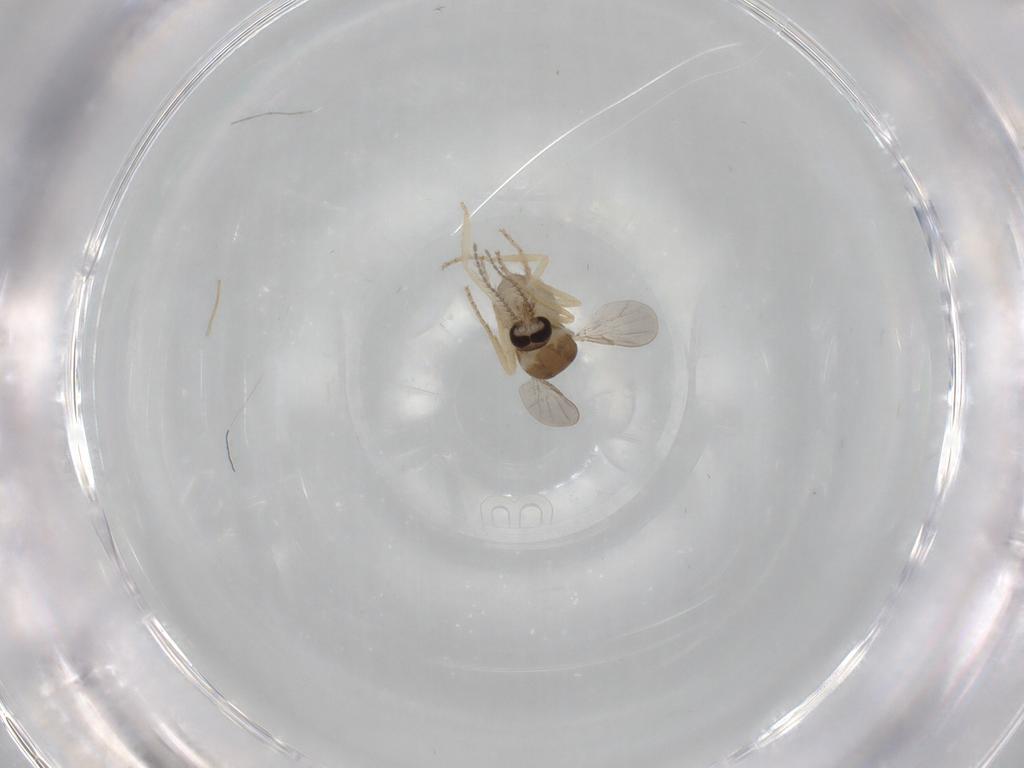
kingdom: Animalia
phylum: Arthropoda
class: Insecta
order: Diptera
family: Ceratopogonidae
